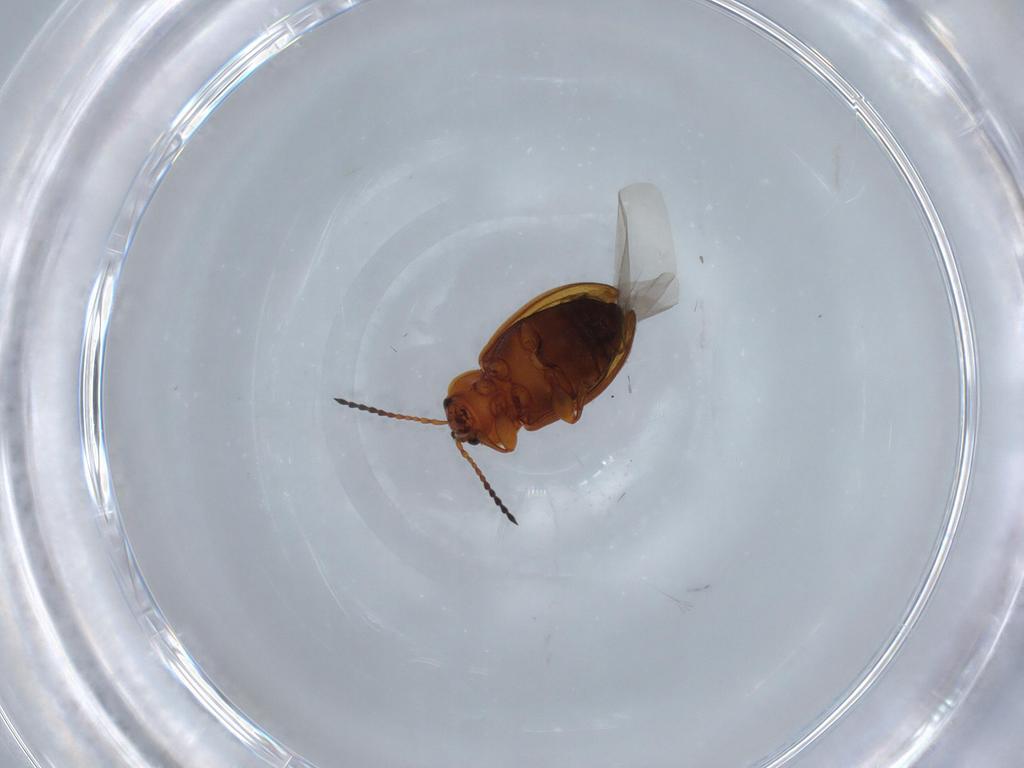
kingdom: Animalia
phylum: Arthropoda
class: Insecta
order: Coleoptera
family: Chrysomelidae
